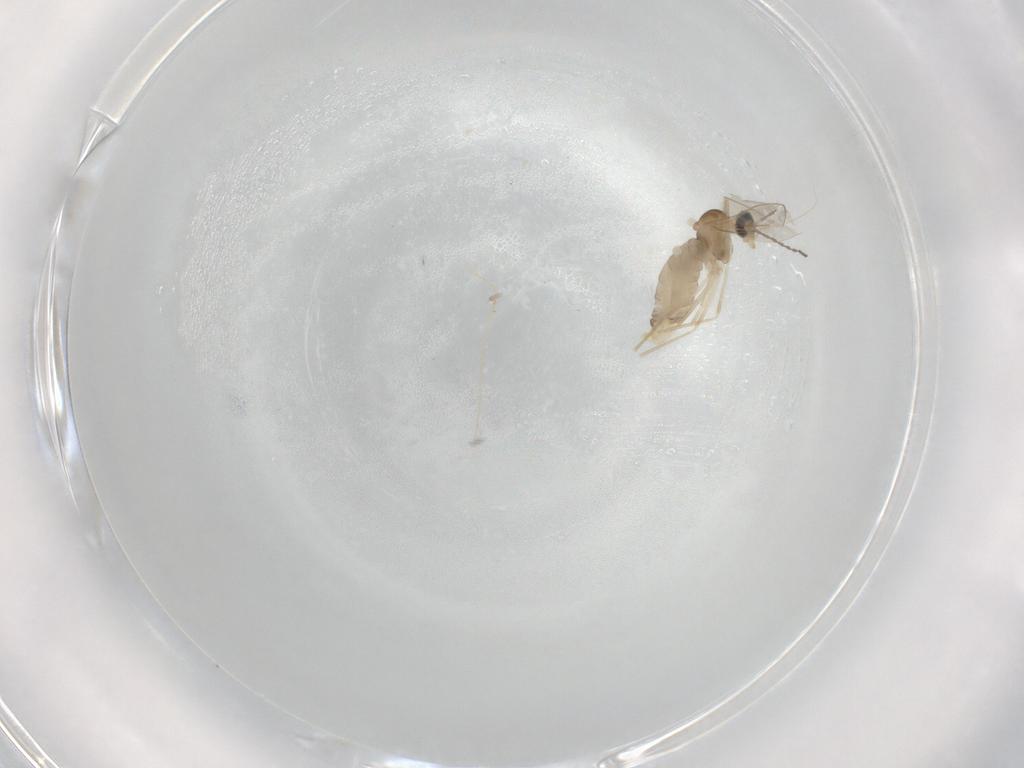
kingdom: Animalia
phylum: Arthropoda
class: Insecta
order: Diptera
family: Cecidomyiidae
